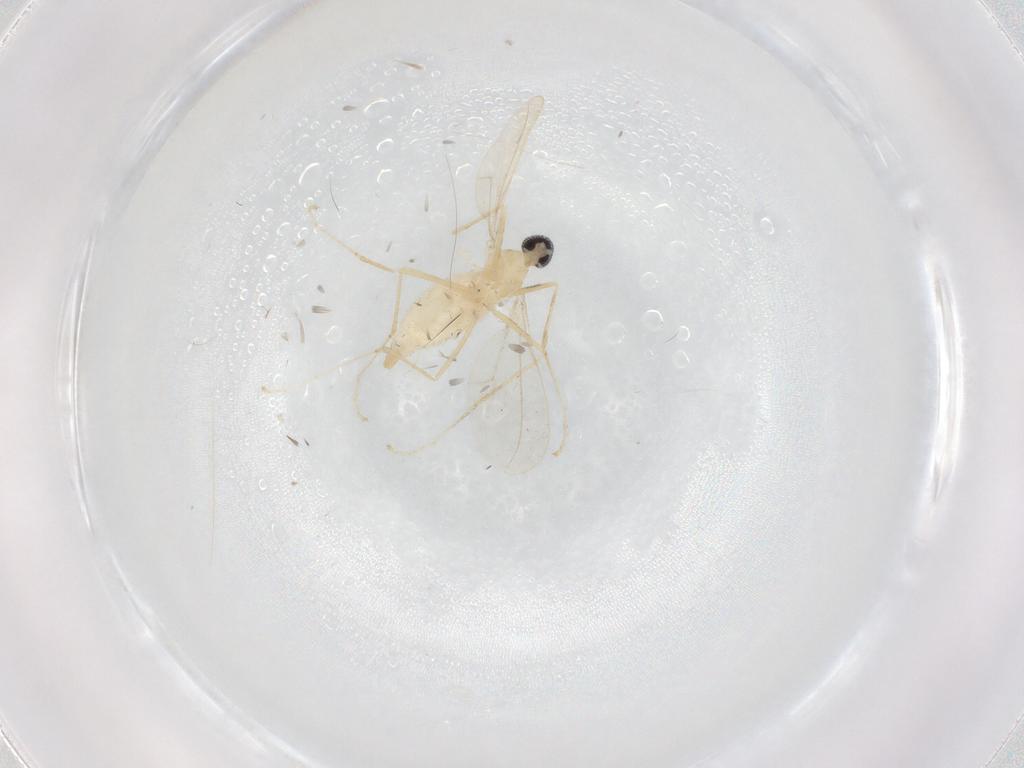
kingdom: Animalia
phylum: Arthropoda
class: Insecta
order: Diptera
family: Cecidomyiidae
